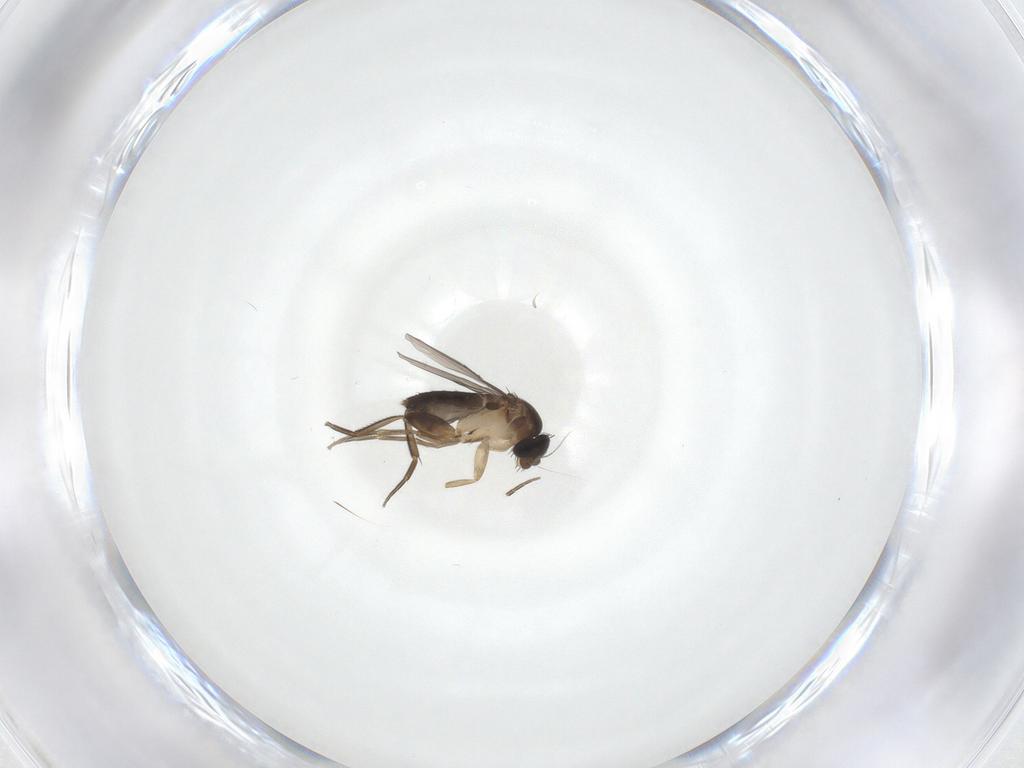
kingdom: Animalia
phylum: Arthropoda
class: Insecta
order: Diptera
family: Phoridae
